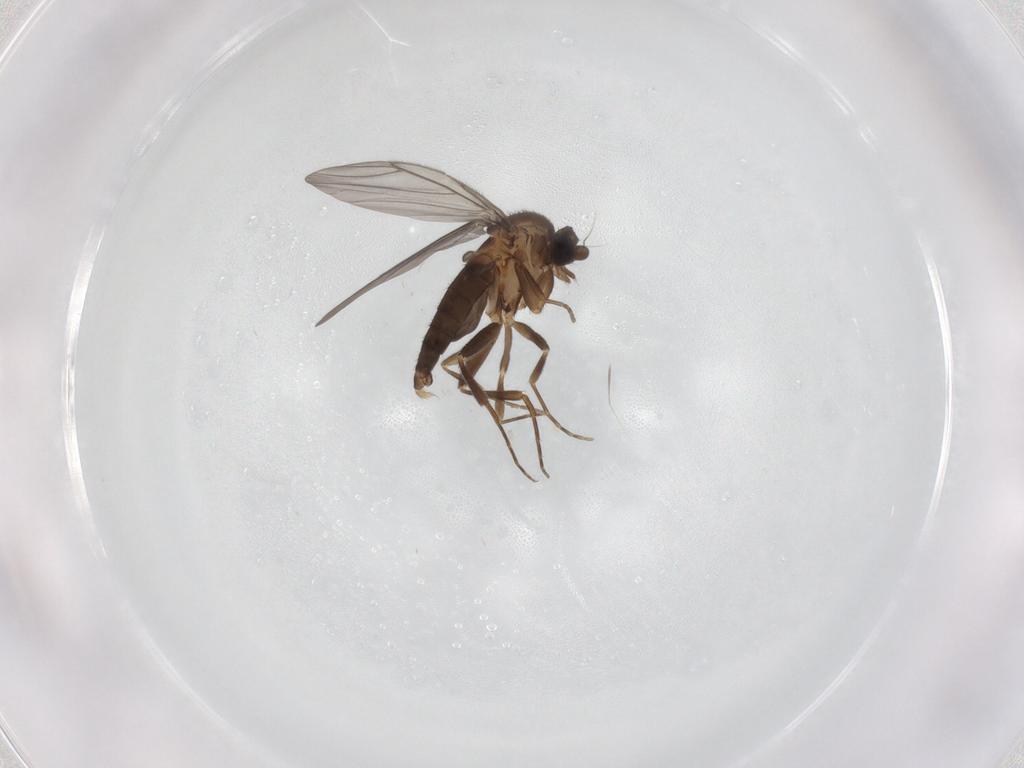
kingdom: Animalia
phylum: Arthropoda
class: Insecta
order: Diptera
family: Phoridae
